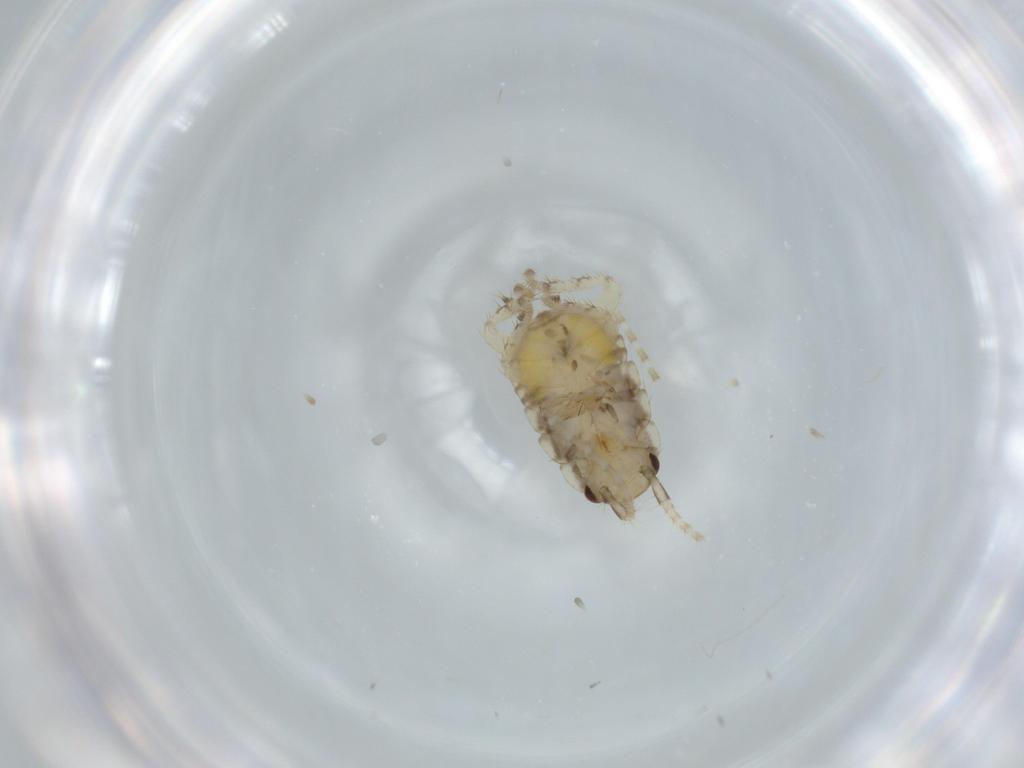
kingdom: Animalia
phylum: Arthropoda
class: Insecta
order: Blattodea
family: Ectobiidae
